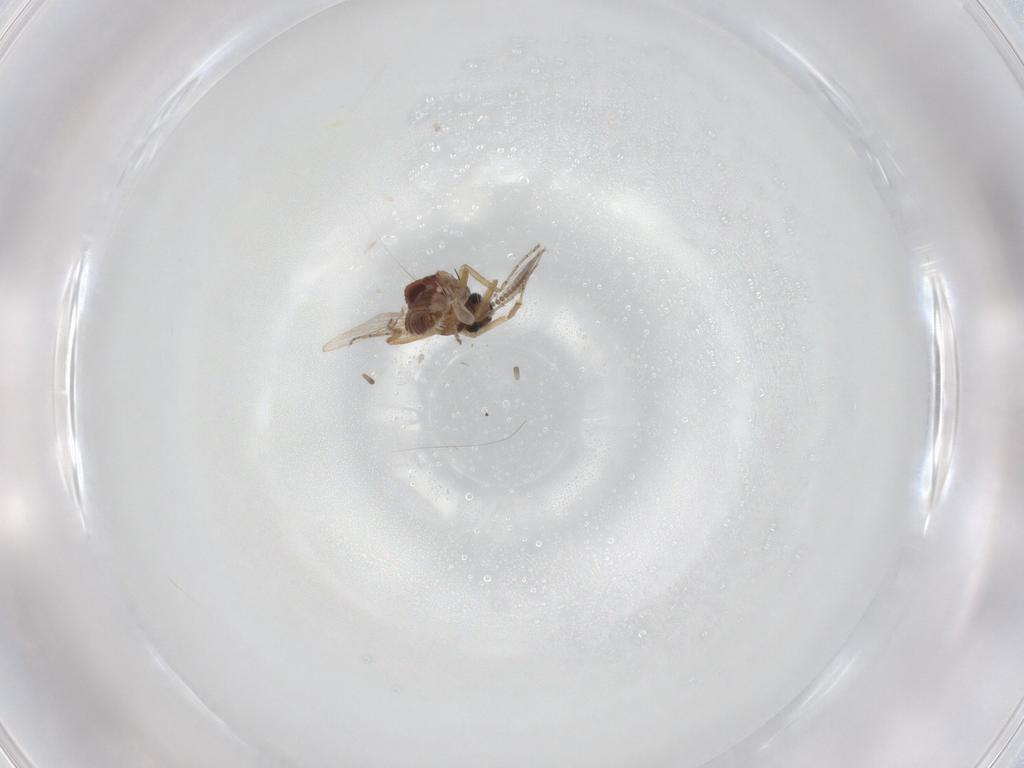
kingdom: Animalia
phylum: Arthropoda
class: Insecta
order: Diptera
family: Ceratopogonidae
